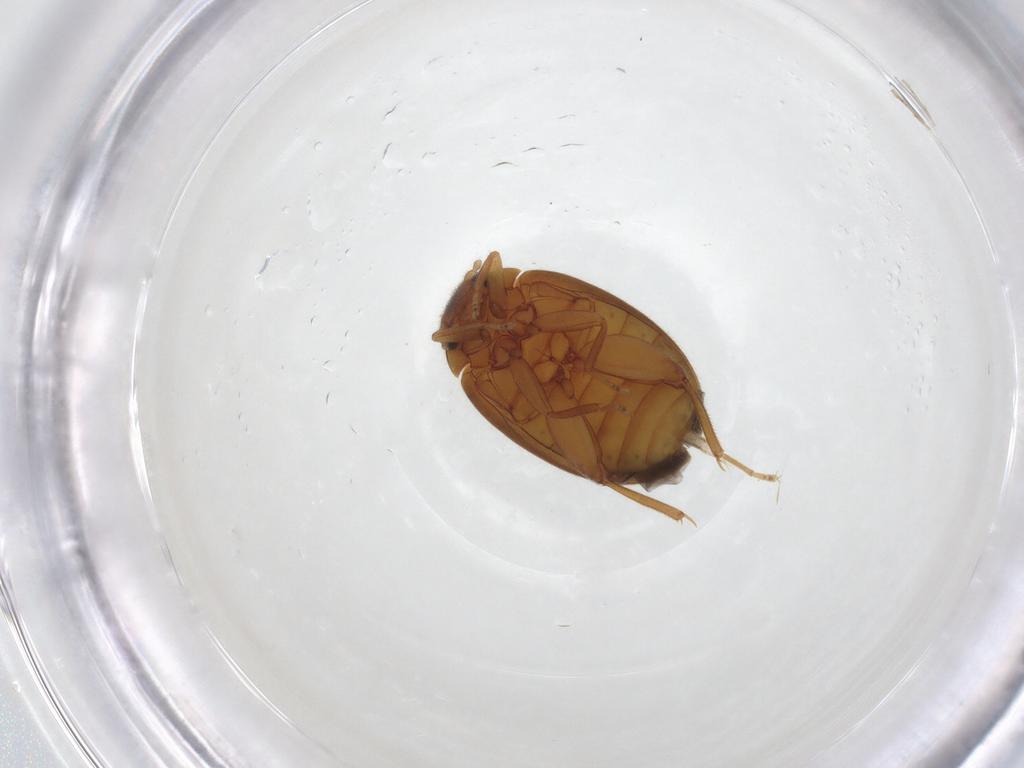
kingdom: Animalia
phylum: Arthropoda
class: Insecta
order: Coleoptera
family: Scirtidae
